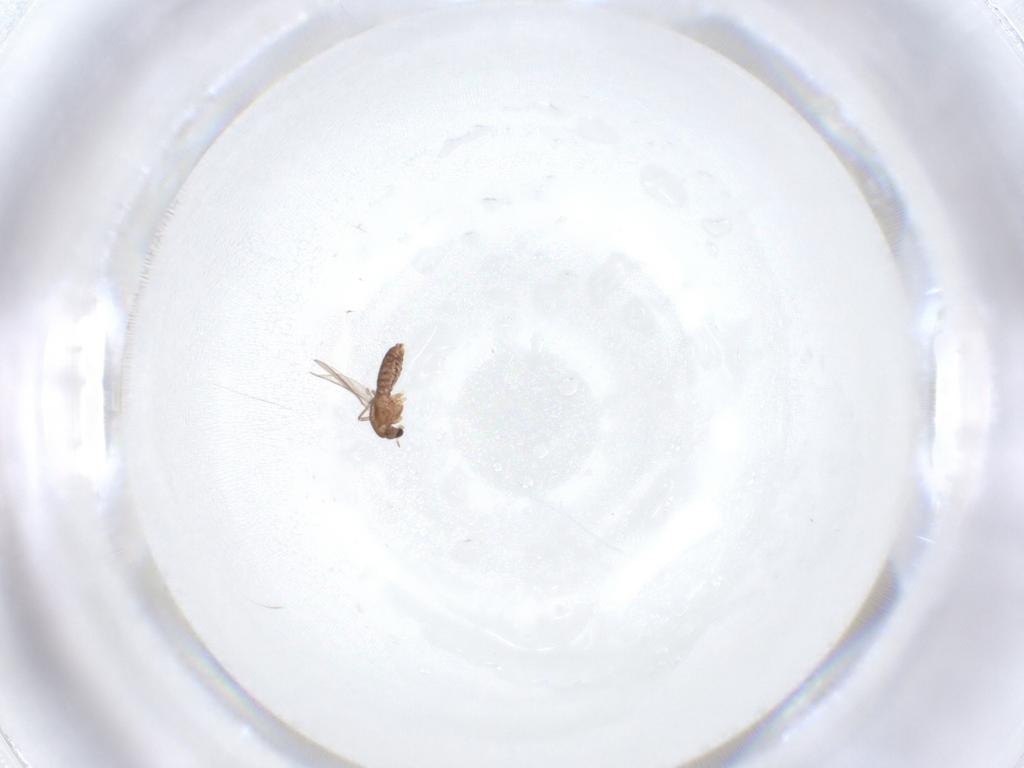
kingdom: Animalia
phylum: Arthropoda
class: Insecta
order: Diptera
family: Chironomidae
